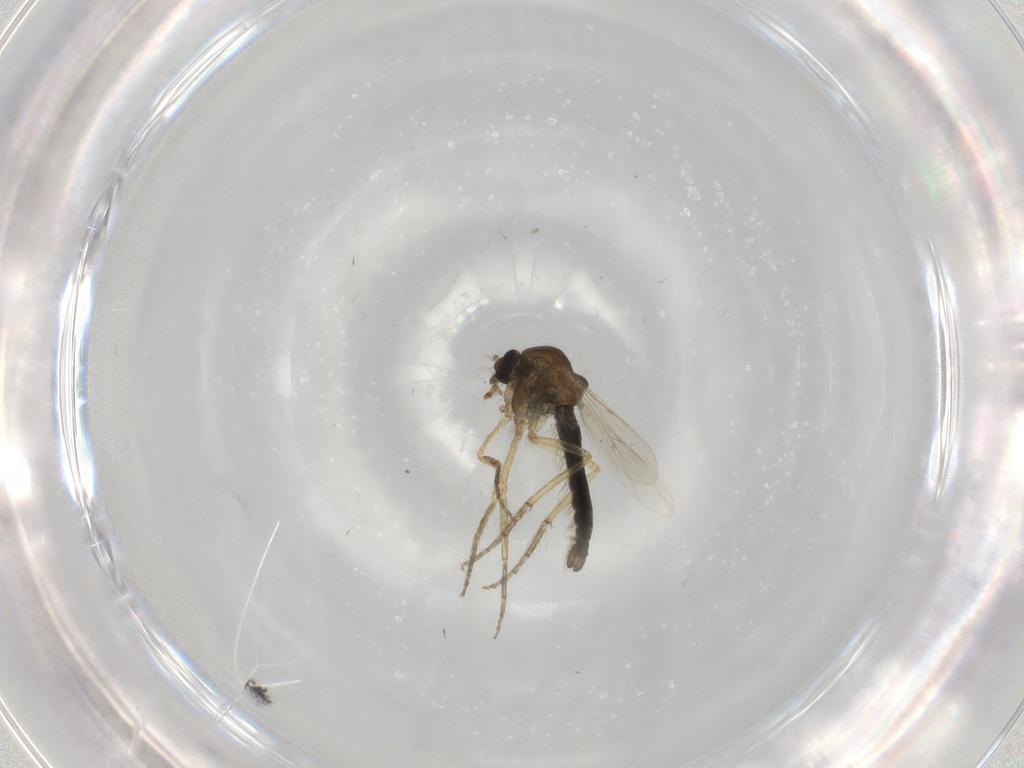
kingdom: Animalia
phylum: Arthropoda
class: Insecta
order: Diptera
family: Ceratopogonidae
